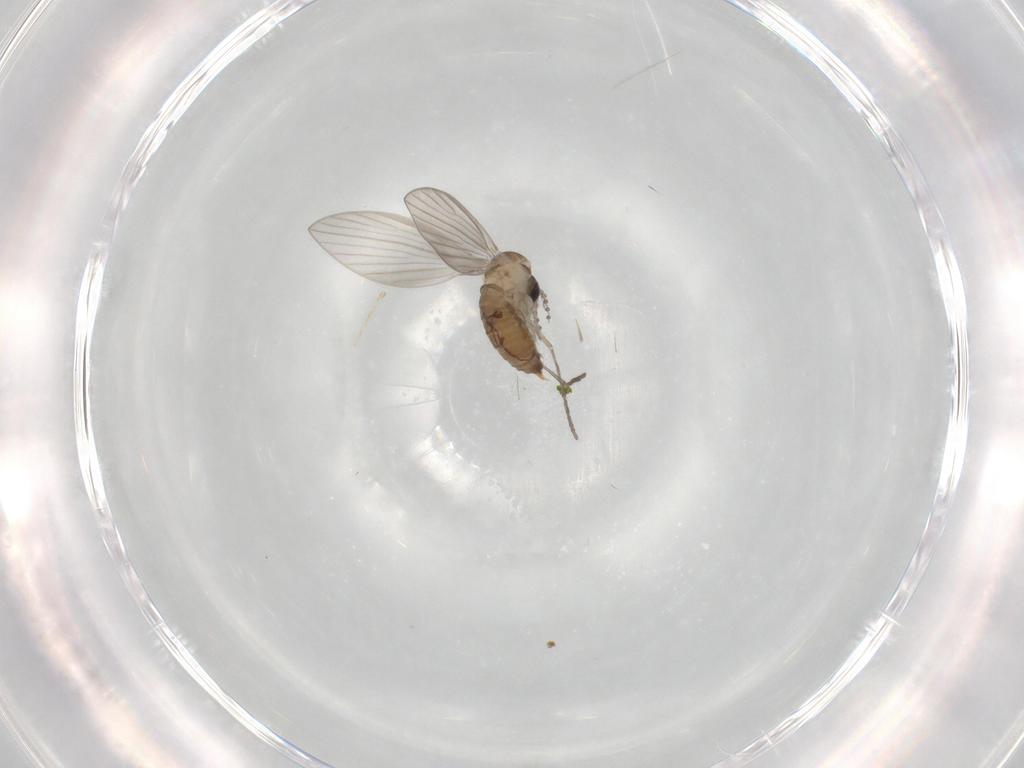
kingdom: Animalia
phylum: Arthropoda
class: Insecta
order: Diptera
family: Psychodidae
